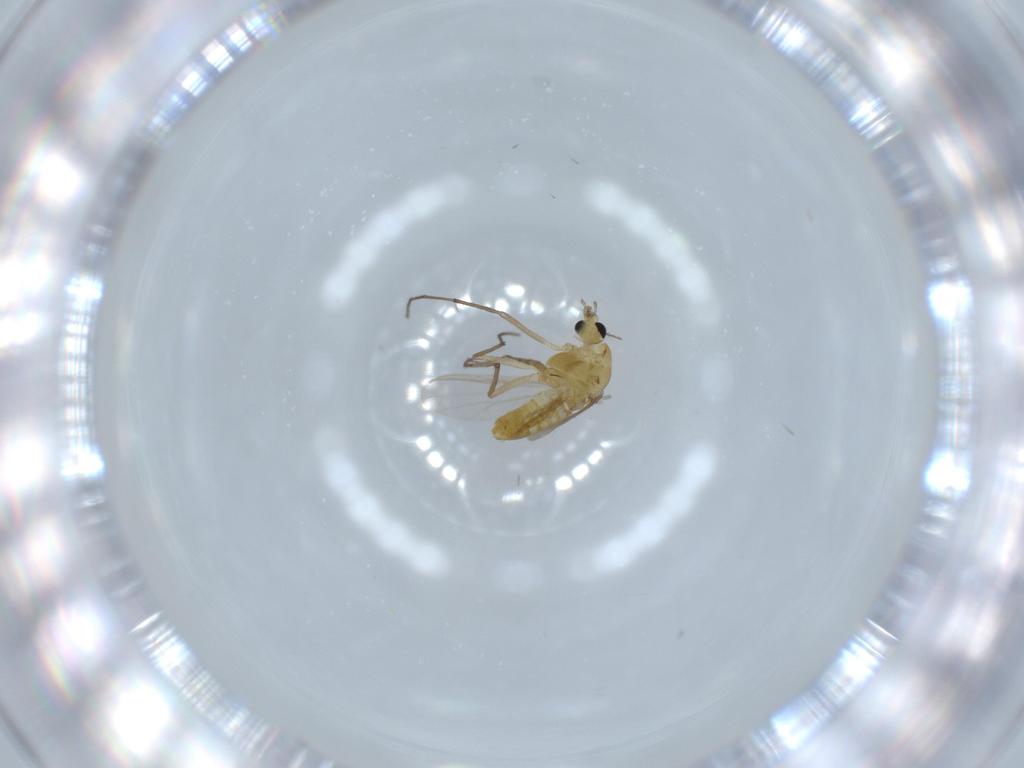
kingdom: Animalia
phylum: Arthropoda
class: Insecta
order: Diptera
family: Chironomidae
